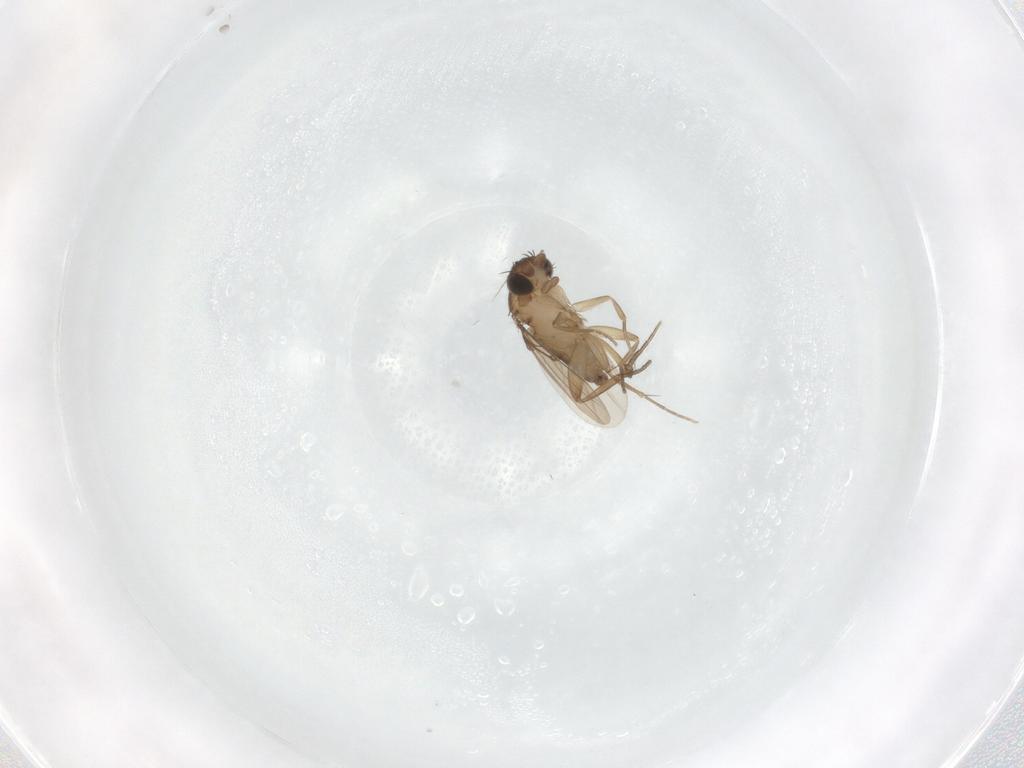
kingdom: Animalia
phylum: Arthropoda
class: Insecta
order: Diptera
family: Phoridae
